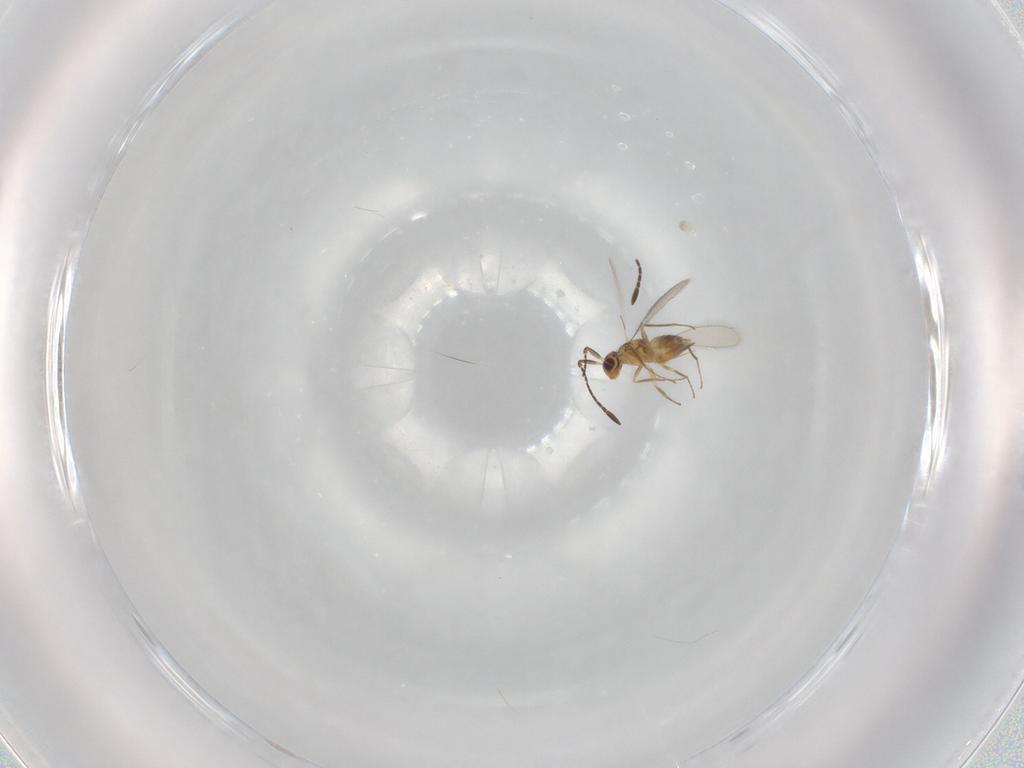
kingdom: Animalia
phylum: Arthropoda
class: Insecta
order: Hymenoptera
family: Mymaridae
